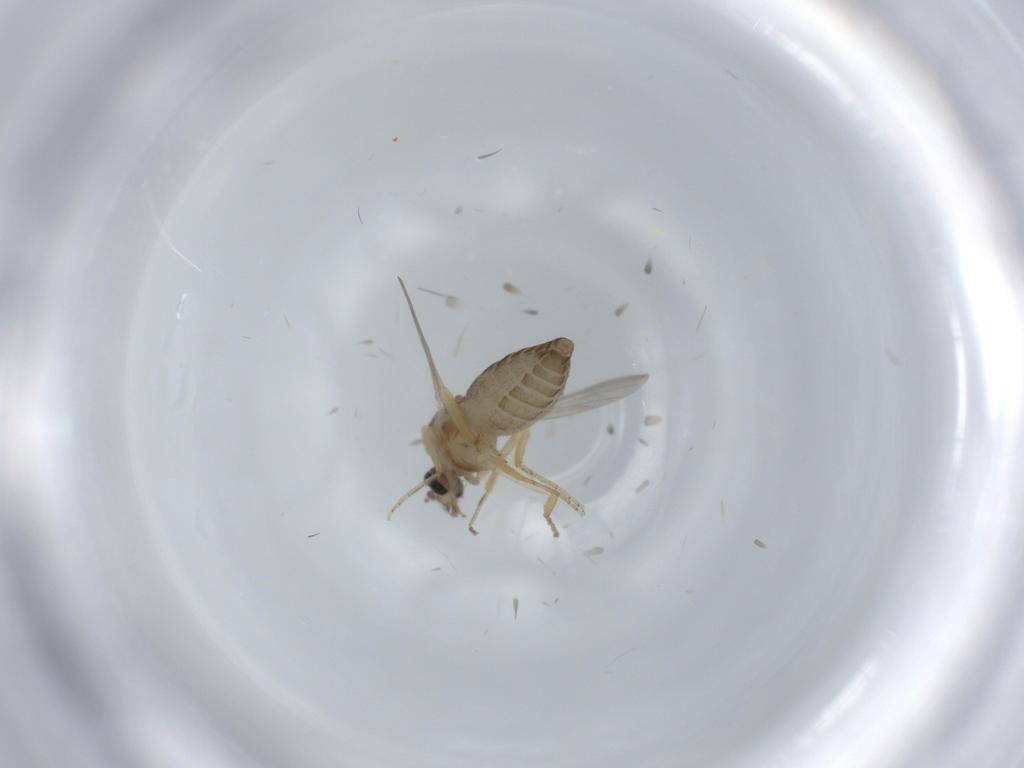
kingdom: Animalia
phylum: Arthropoda
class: Insecta
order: Diptera
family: Ceratopogonidae
